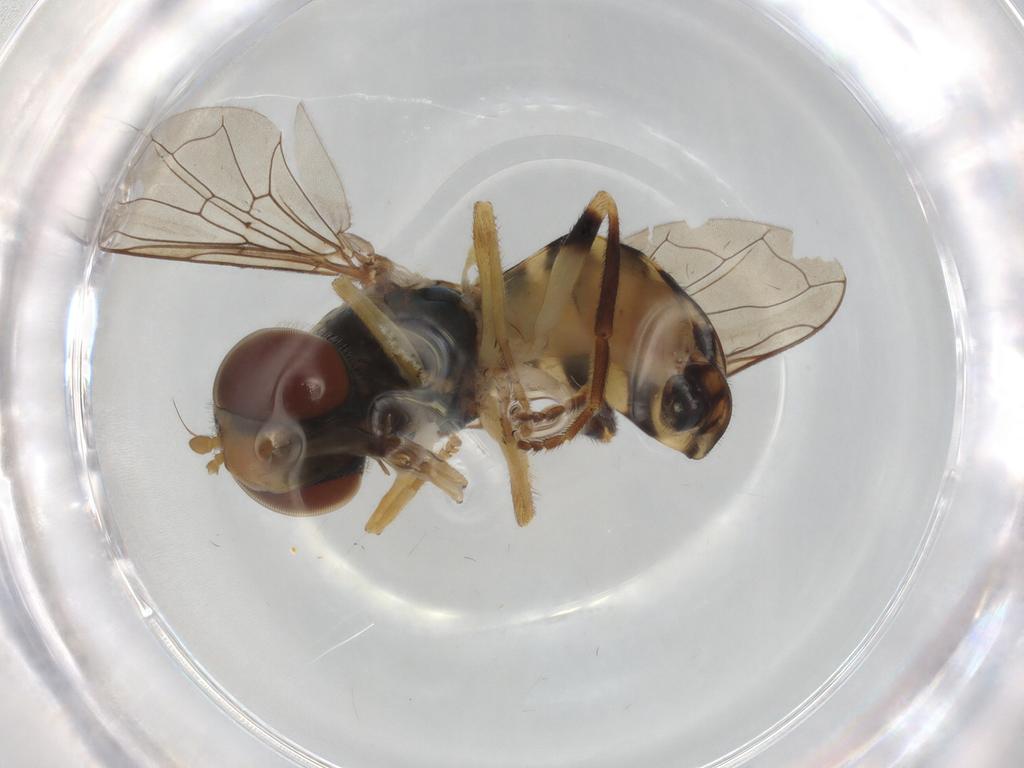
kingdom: Animalia
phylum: Arthropoda
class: Insecta
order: Diptera
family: Syrphidae
